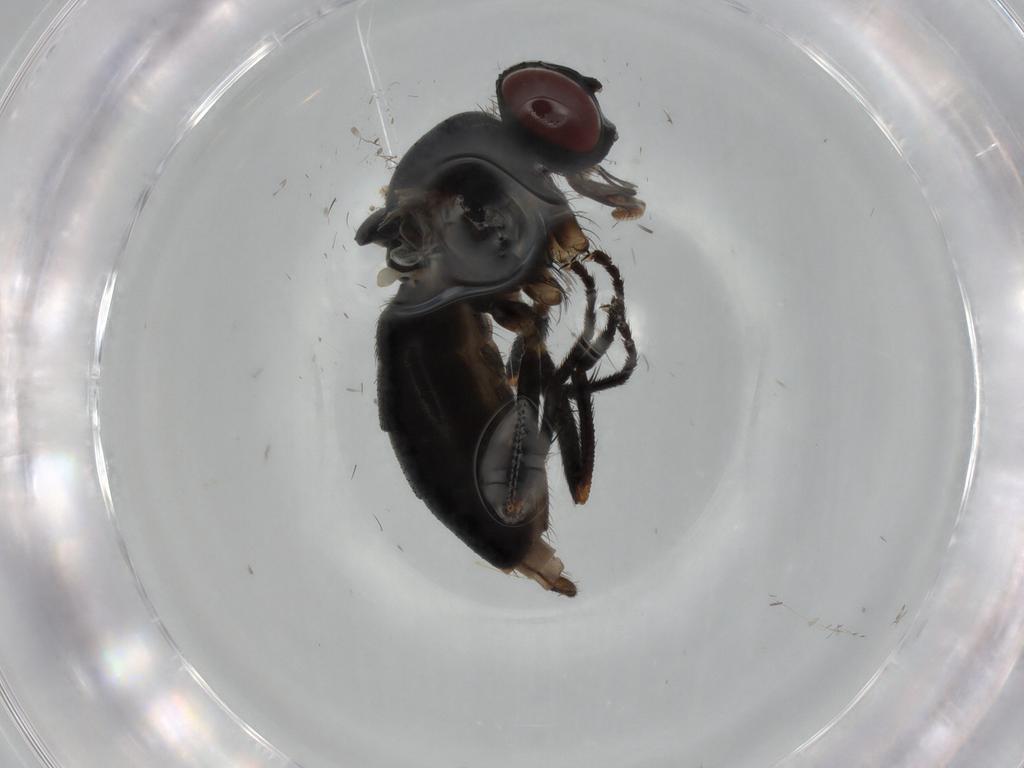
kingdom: Animalia
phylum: Arthropoda
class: Insecta
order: Diptera
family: Muscidae
